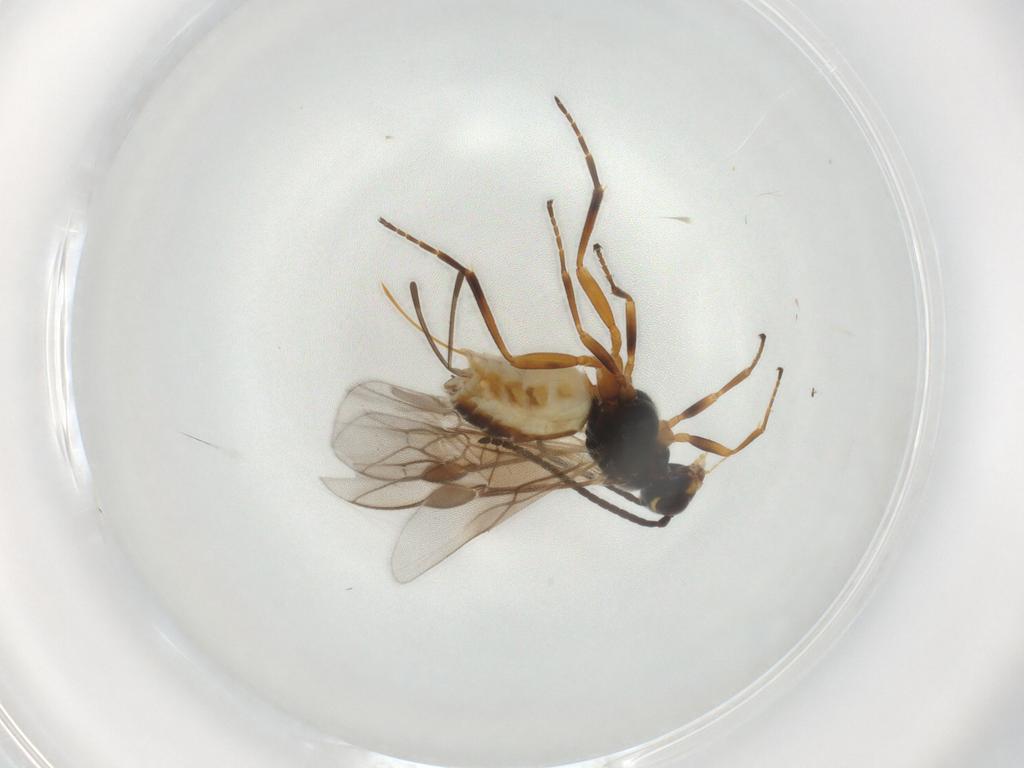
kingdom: Animalia
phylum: Arthropoda
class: Insecta
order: Hymenoptera
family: Braconidae
